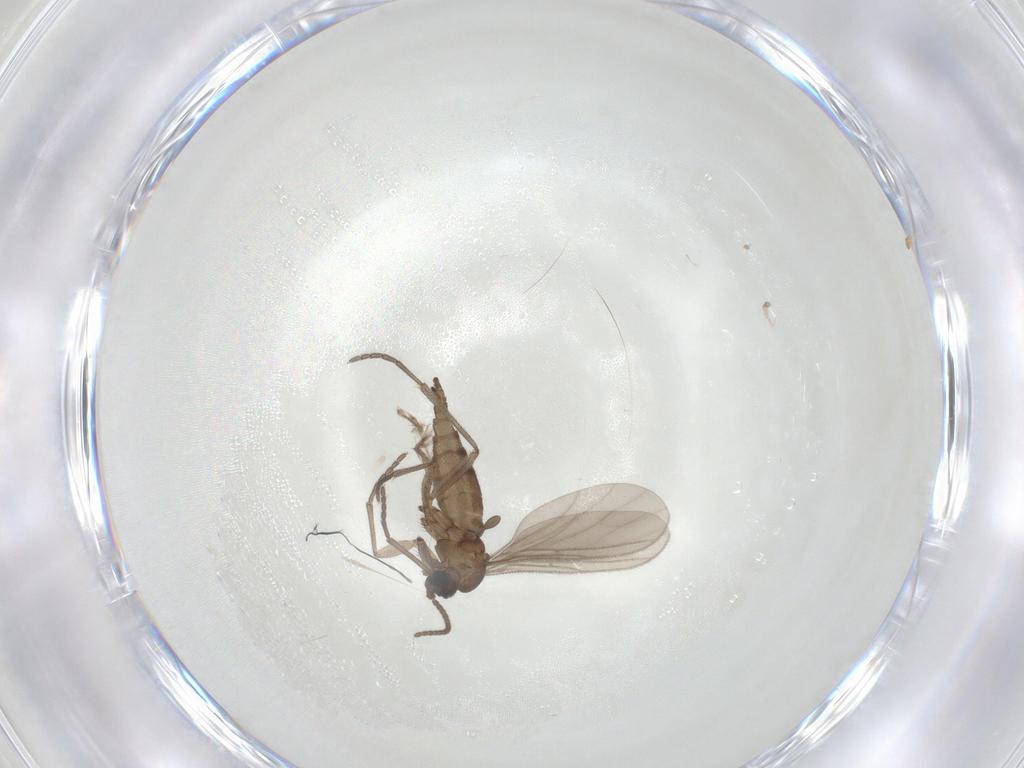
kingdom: Animalia
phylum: Arthropoda
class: Insecta
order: Diptera
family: Sciaridae
